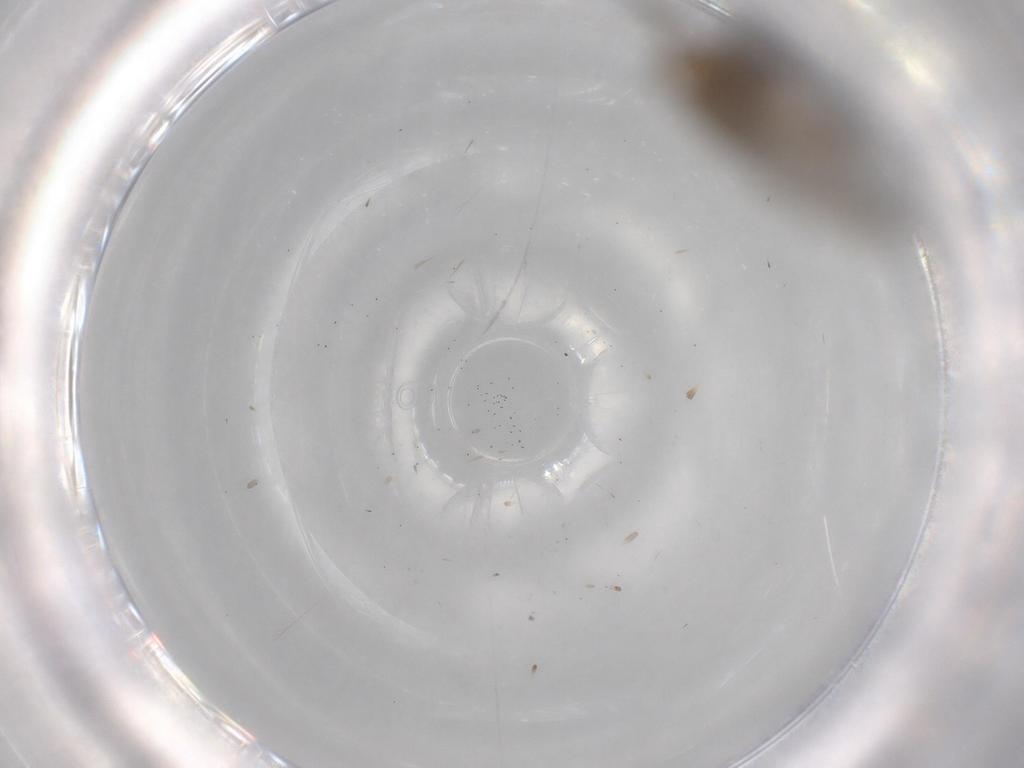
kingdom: Animalia
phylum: Arthropoda
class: Insecta
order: Neuroptera
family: Coniopterygidae
